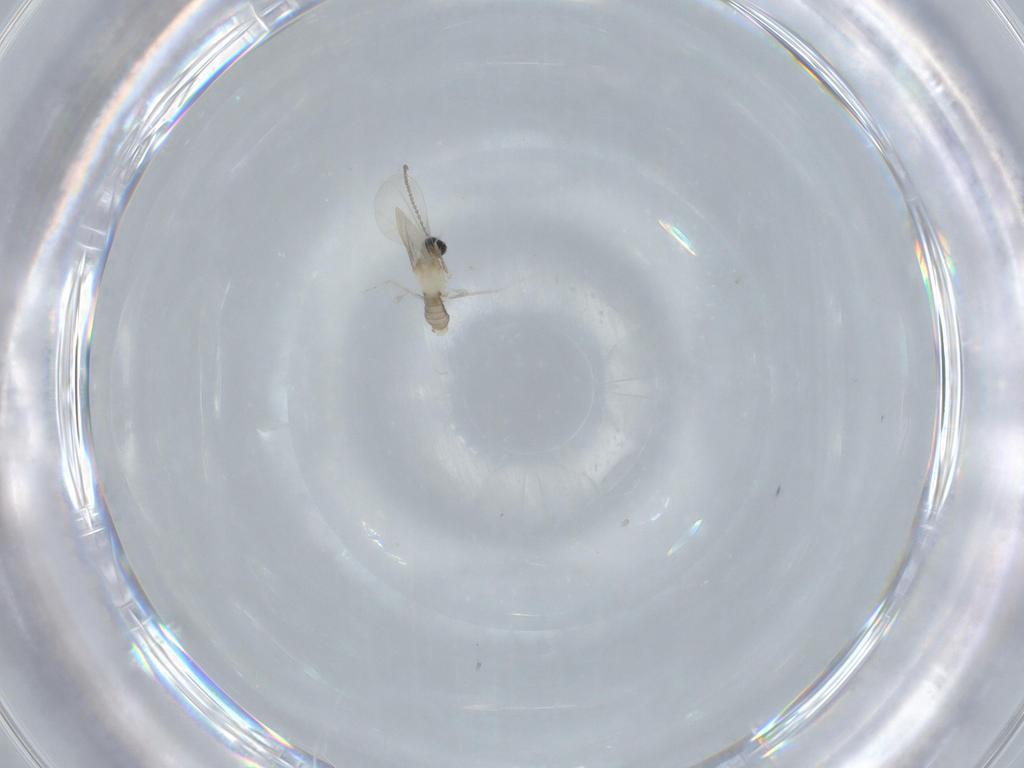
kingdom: Animalia
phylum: Arthropoda
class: Insecta
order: Diptera
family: Cecidomyiidae
